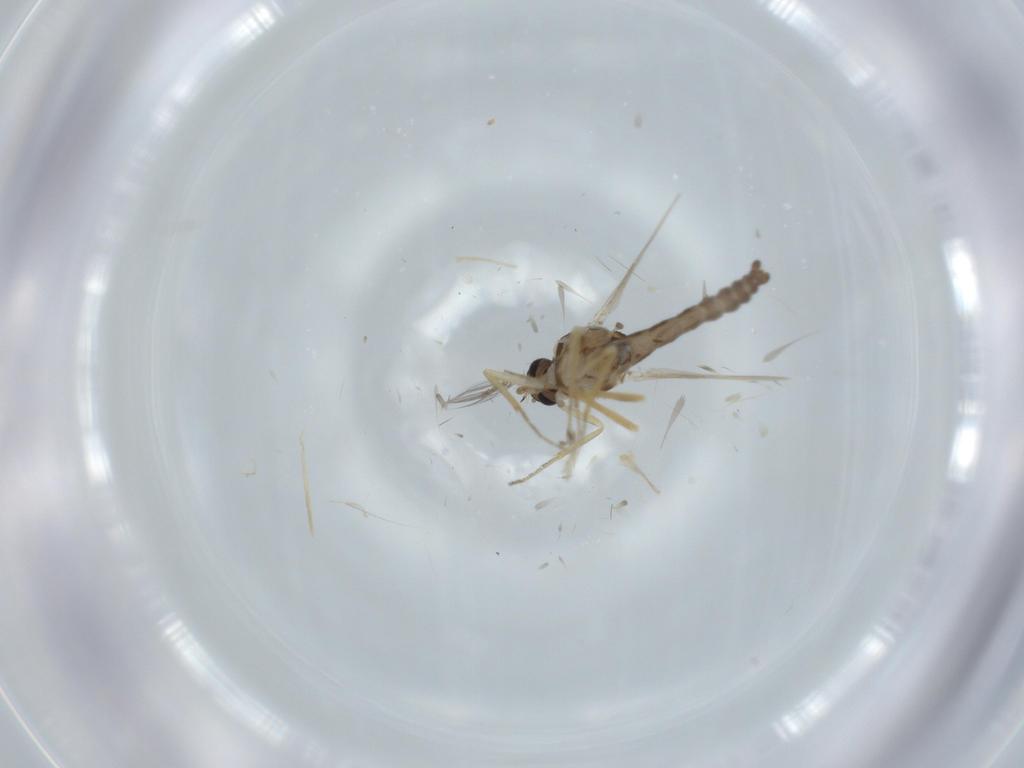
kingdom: Animalia
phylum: Arthropoda
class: Insecta
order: Diptera
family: Ceratopogonidae
